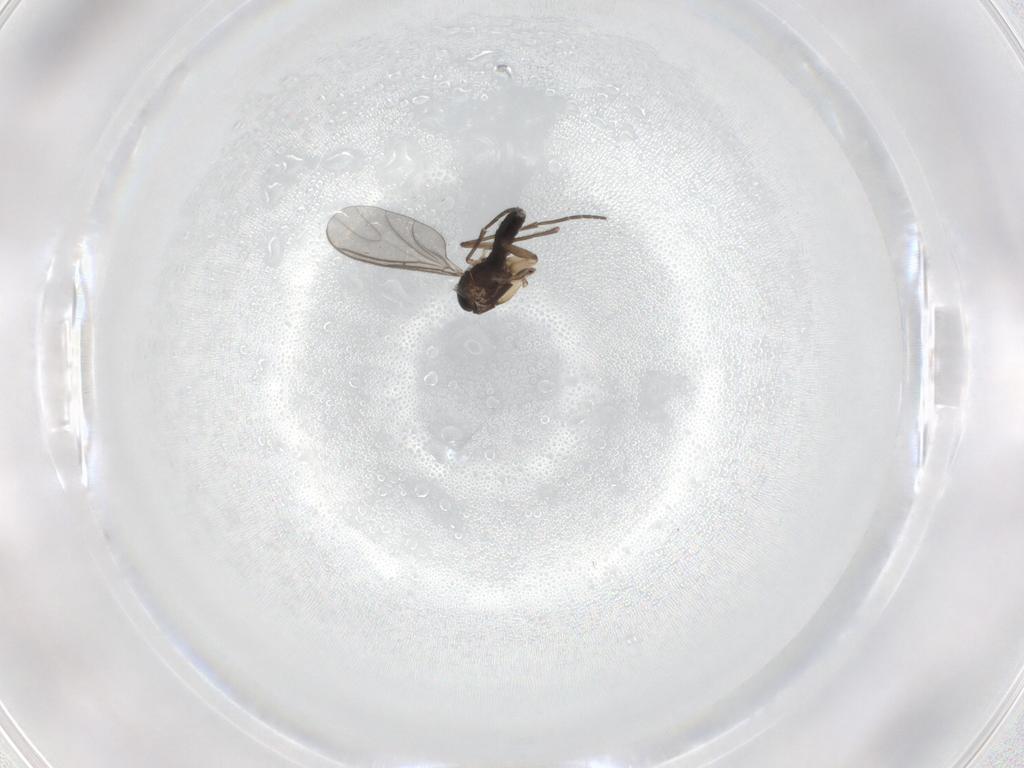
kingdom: Animalia
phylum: Arthropoda
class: Insecta
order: Diptera
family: Sciaridae
